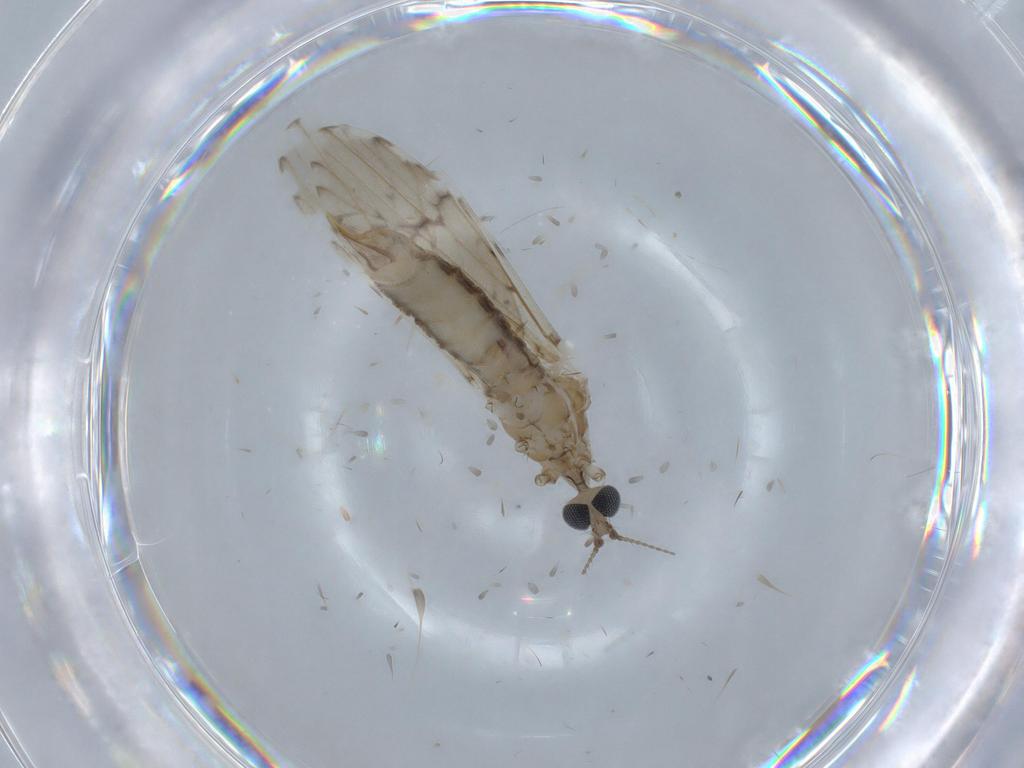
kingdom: Animalia
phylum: Arthropoda
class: Insecta
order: Diptera
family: Limoniidae
